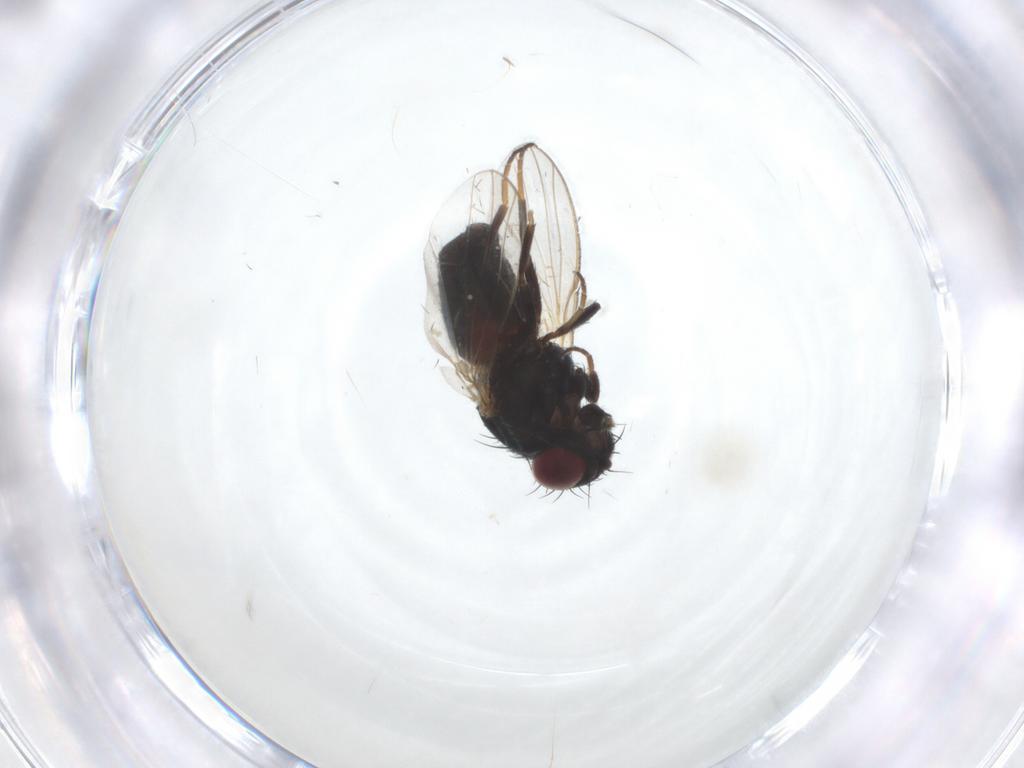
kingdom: Animalia
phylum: Arthropoda
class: Insecta
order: Diptera
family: Carnidae
